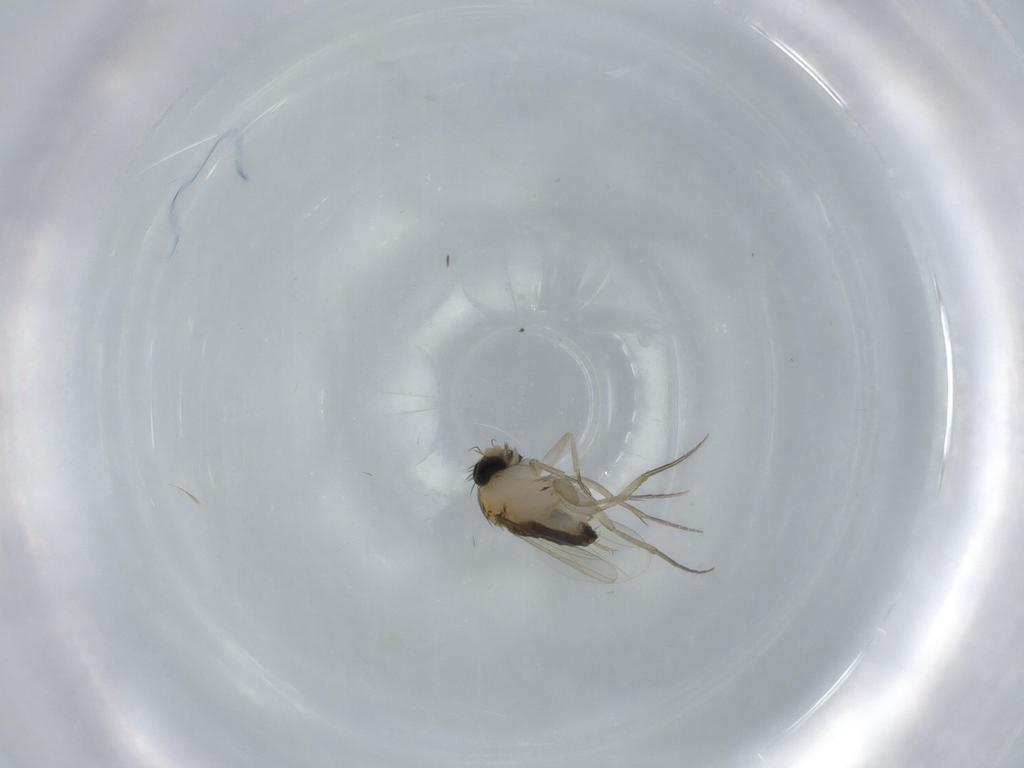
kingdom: Animalia
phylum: Arthropoda
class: Insecta
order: Diptera
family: Phoridae
